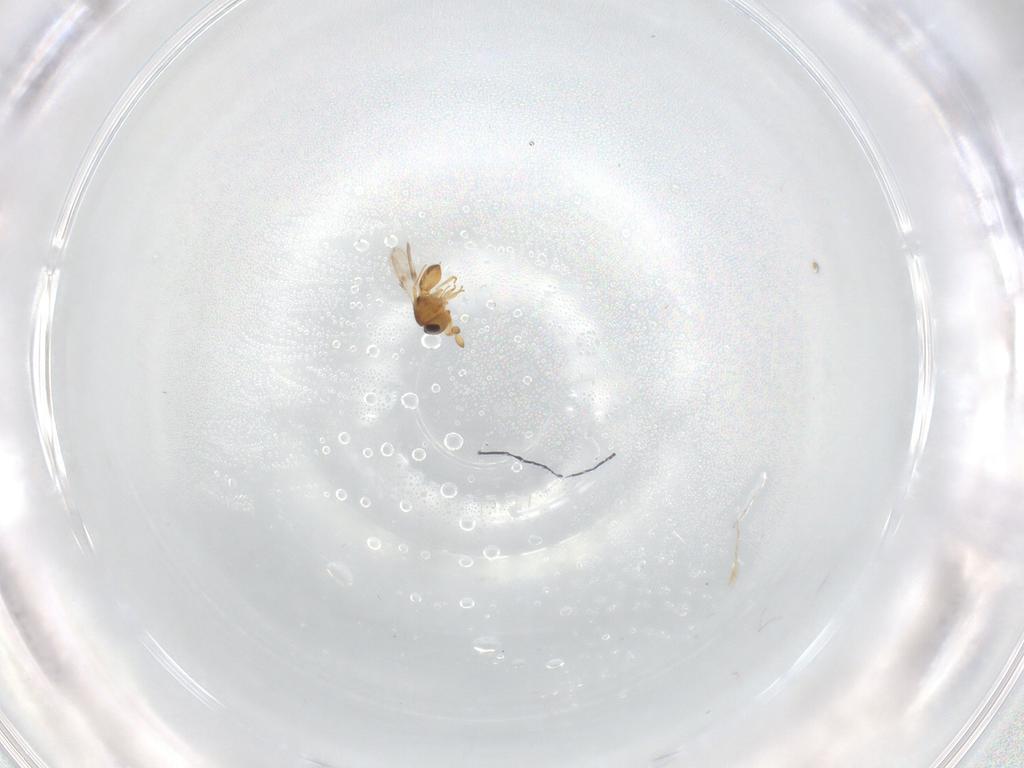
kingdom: Animalia
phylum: Arthropoda
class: Insecta
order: Hymenoptera
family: Scelionidae
